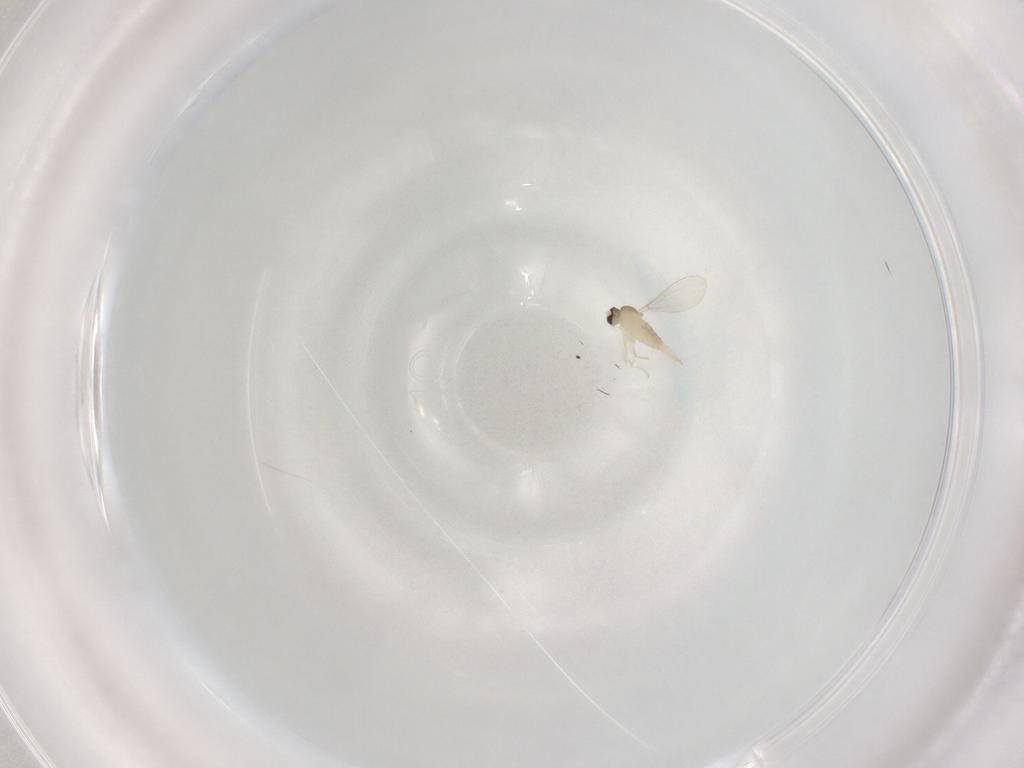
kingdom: Animalia
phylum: Arthropoda
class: Insecta
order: Diptera
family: Cecidomyiidae
